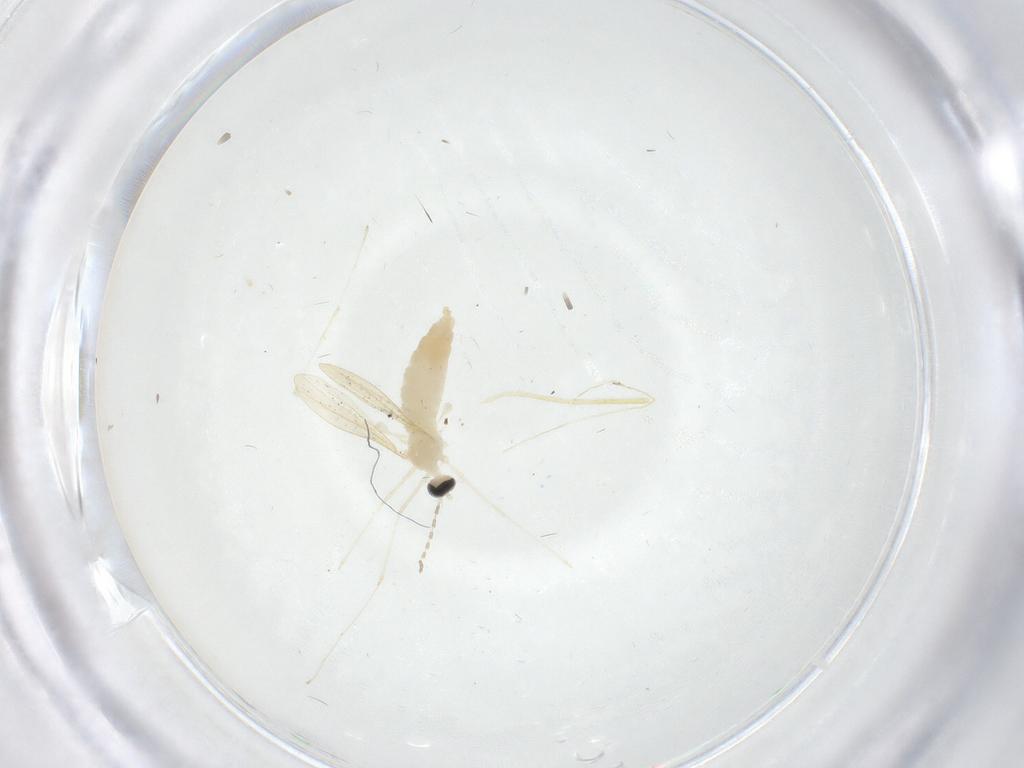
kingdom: Animalia
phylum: Arthropoda
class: Insecta
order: Diptera
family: Cecidomyiidae
